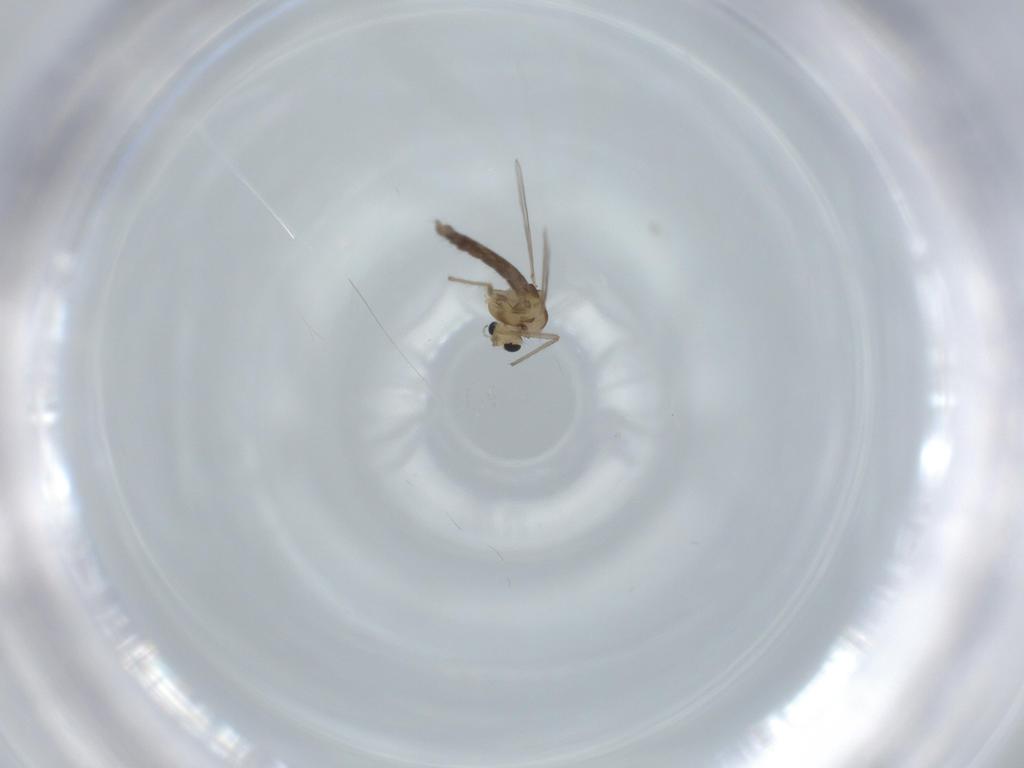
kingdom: Animalia
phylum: Arthropoda
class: Insecta
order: Diptera
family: Chironomidae
